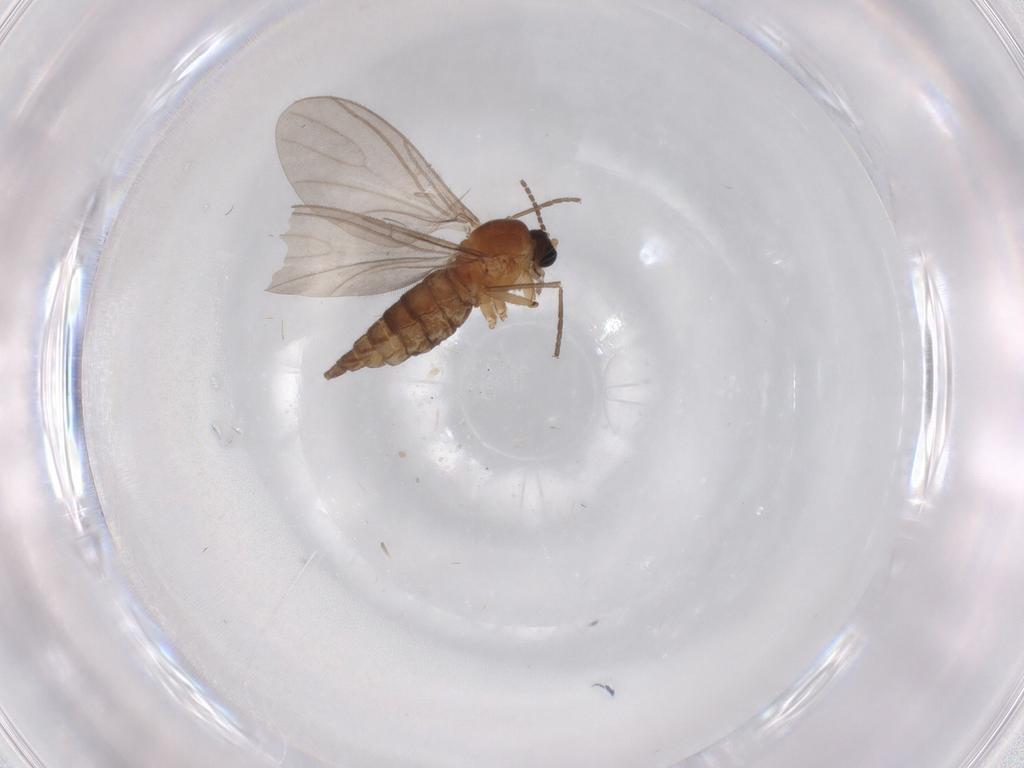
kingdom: Animalia
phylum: Arthropoda
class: Insecta
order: Diptera
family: Sciaridae
